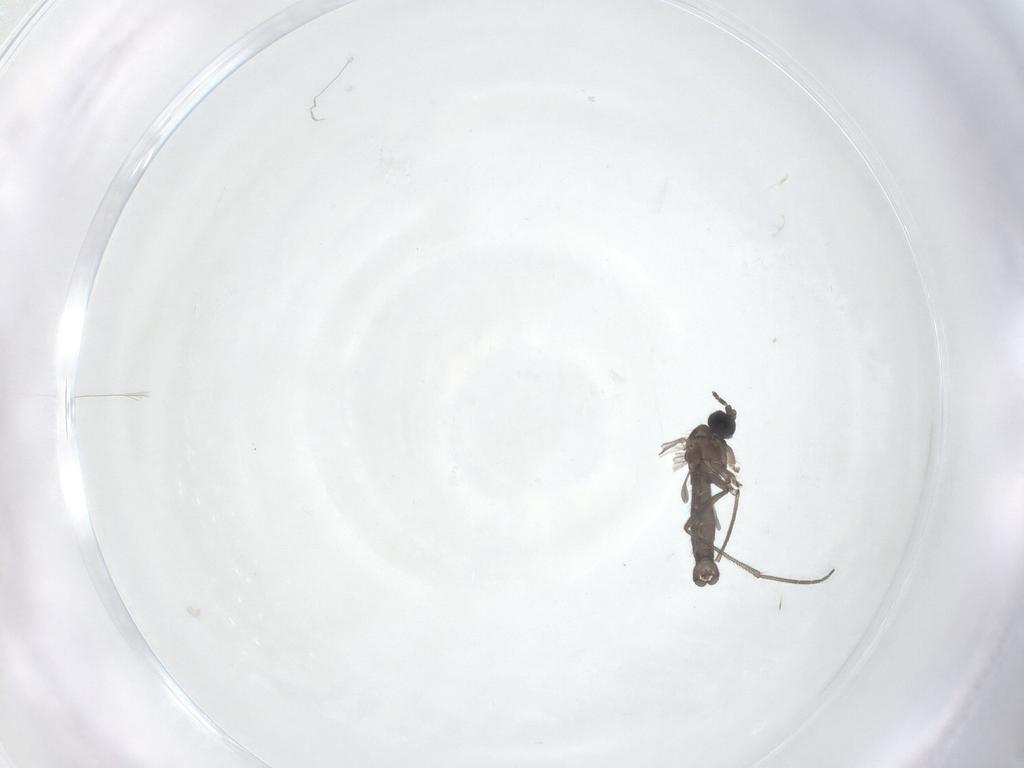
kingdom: Animalia
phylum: Arthropoda
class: Insecta
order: Diptera
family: Sciaridae
